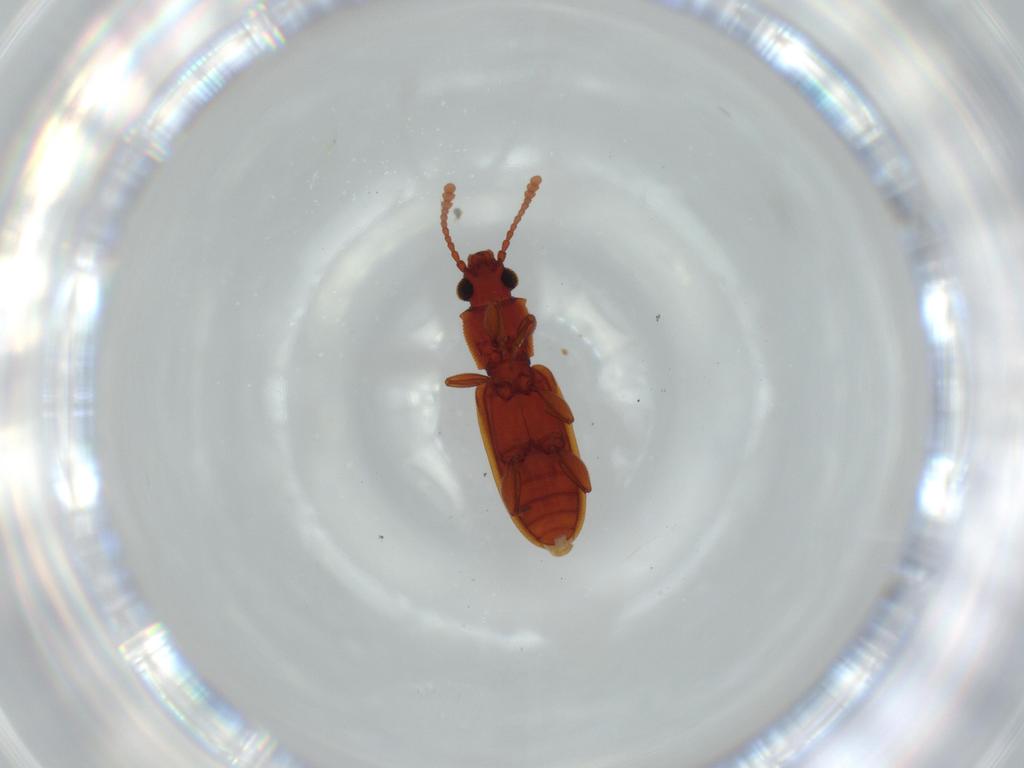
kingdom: Animalia
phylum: Arthropoda
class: Insecta
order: Coleoptera
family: Staphylinidae
